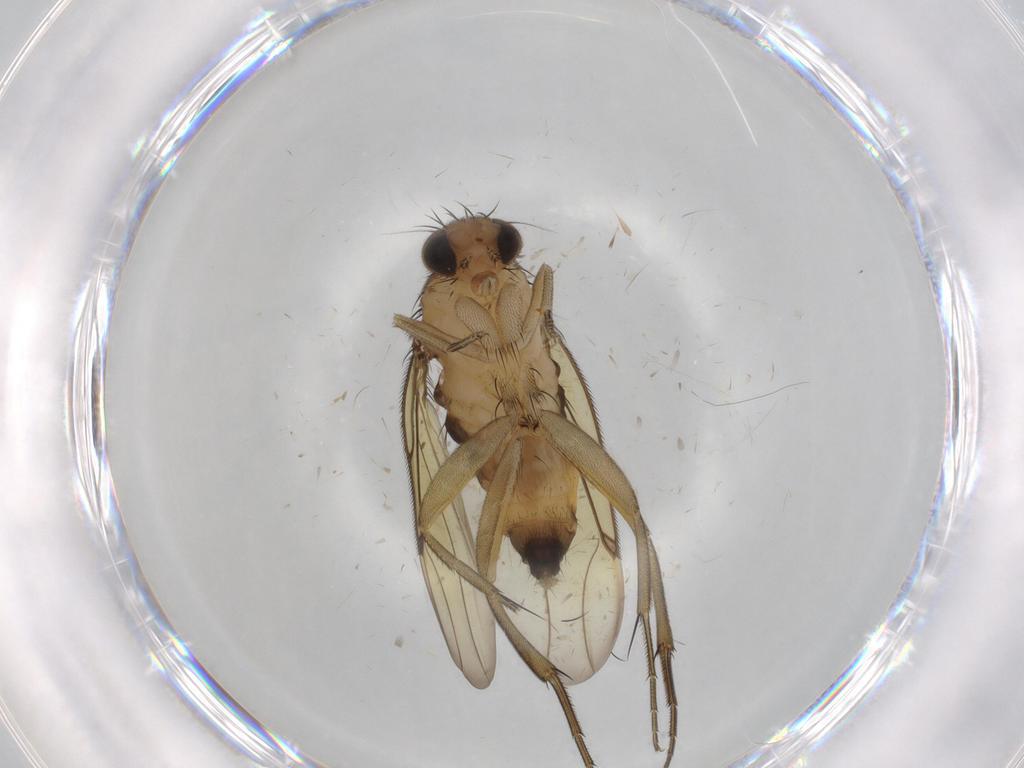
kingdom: Animalia
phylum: Arthropoda
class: Insecta
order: Diptera
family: Phoridae
